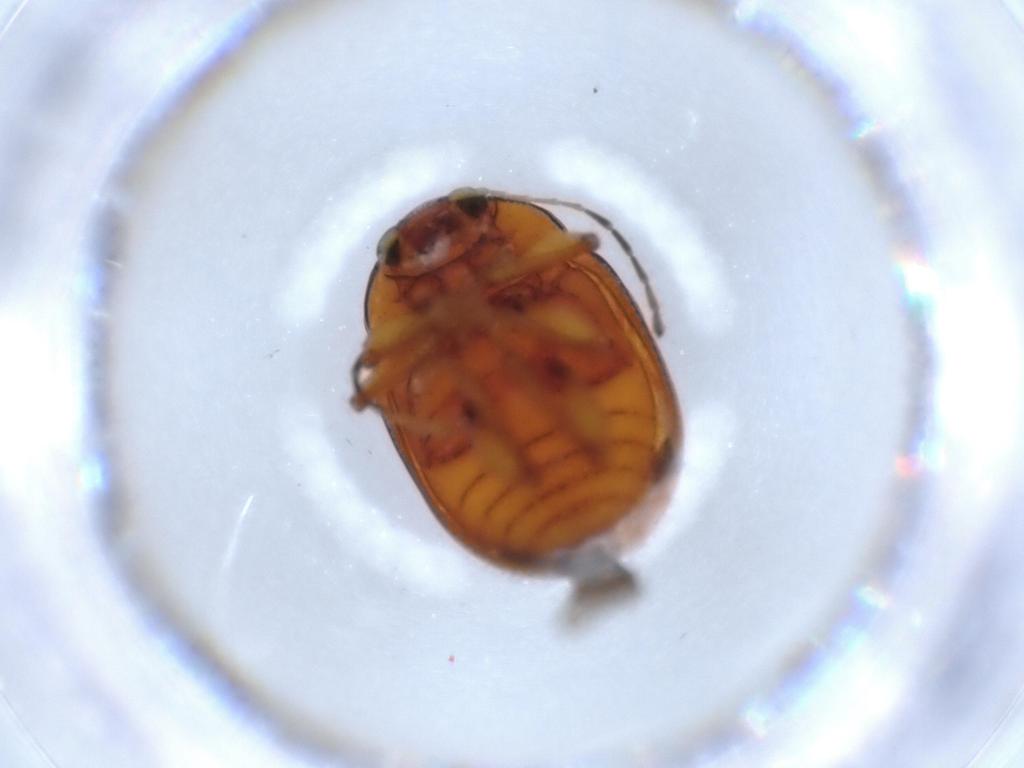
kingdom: Animalia
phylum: Arthropoda
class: Insecta
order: Coleoptera
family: Chrysomelidae
